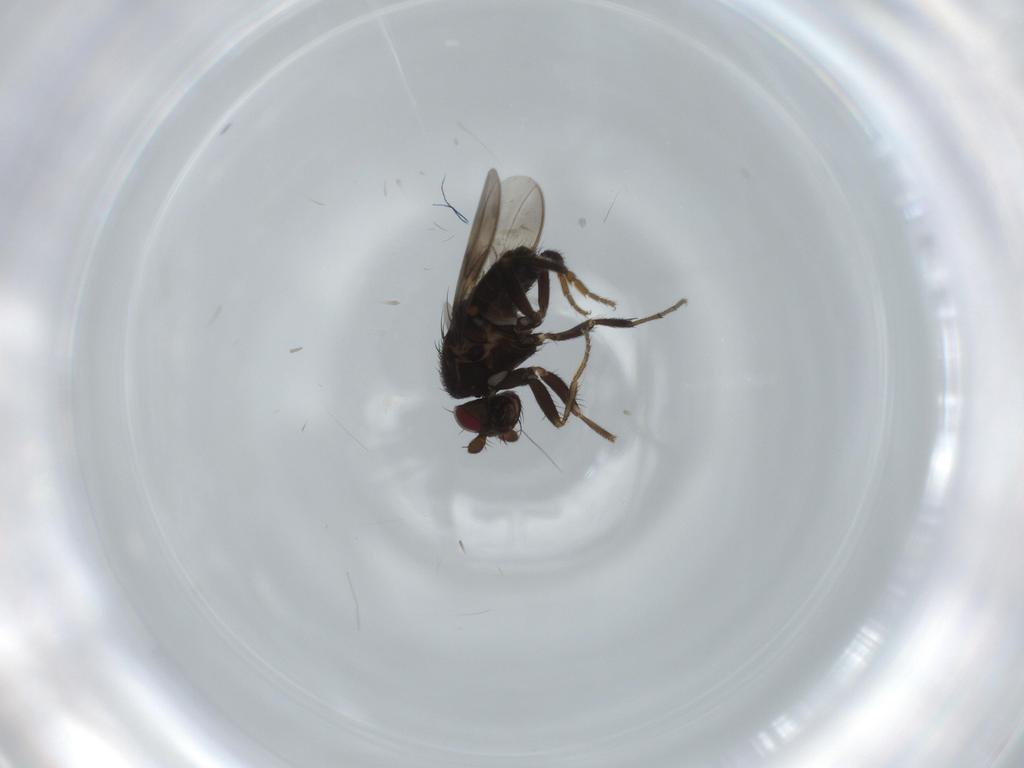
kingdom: Animalia
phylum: Arthropoda
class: Insecta
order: Diptera
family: Sphaeroceridae
